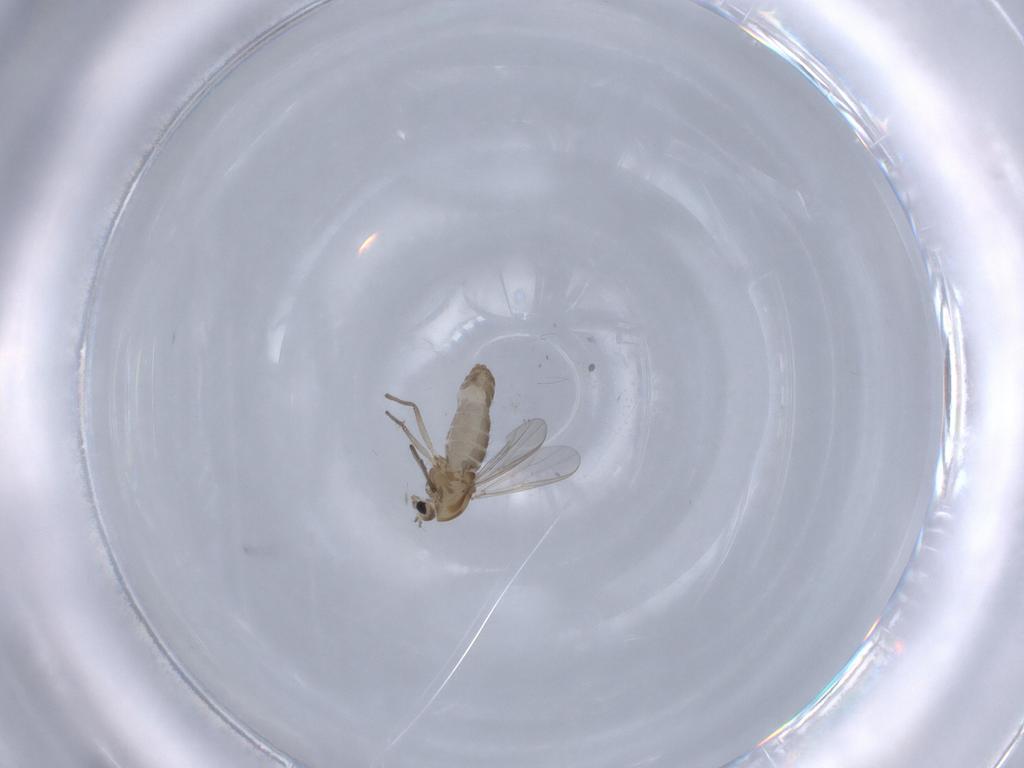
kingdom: Animalia
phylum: Arthropoda
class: Insecta
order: Diptera
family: Chironomidae
